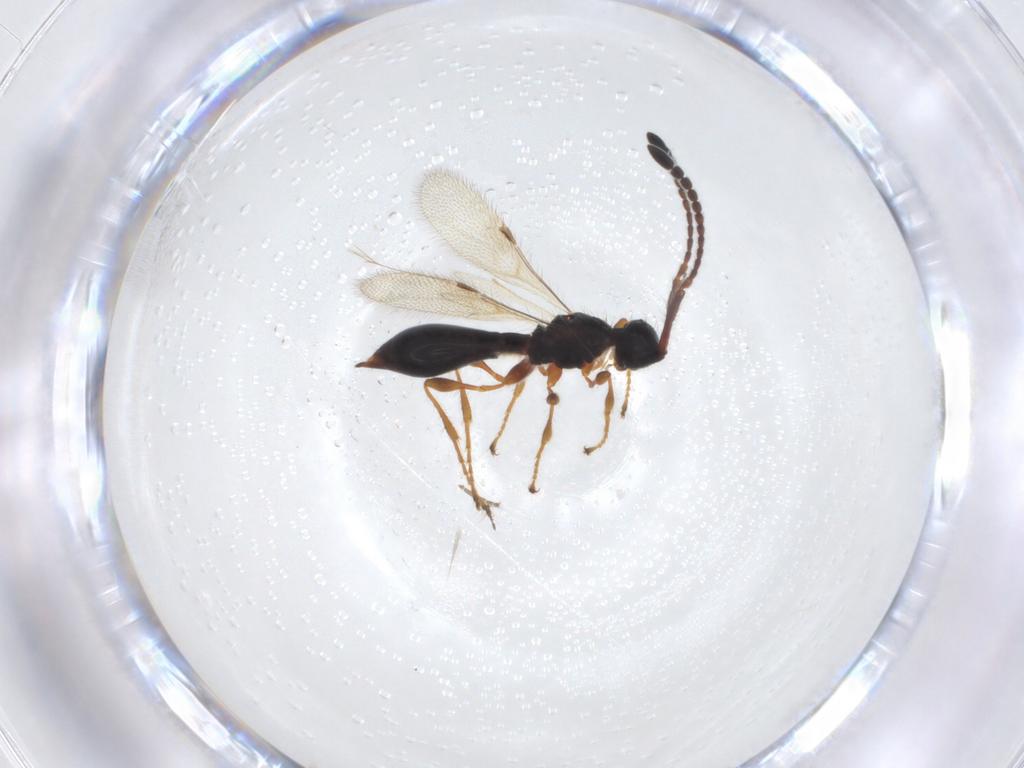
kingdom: Animalia
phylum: Arthropoda
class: Insecta
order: Hymenoptera
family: Diapriidae
